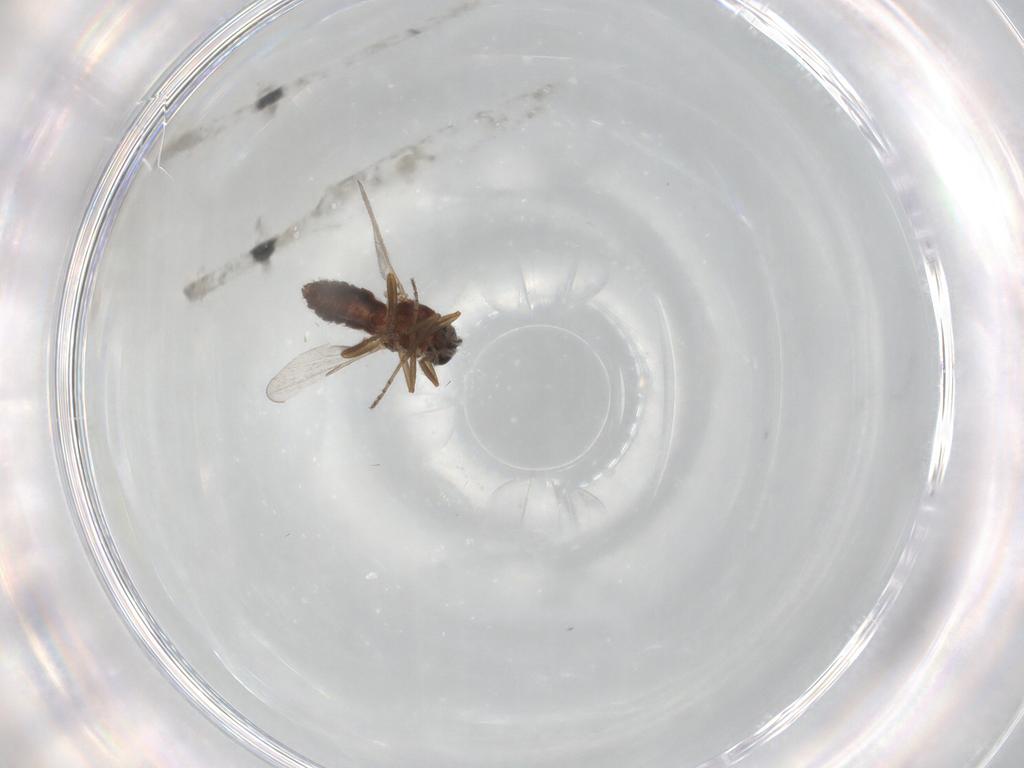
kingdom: Animalia
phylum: Arthropoda
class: Insecta
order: Diptera
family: Ceratopogonidae
